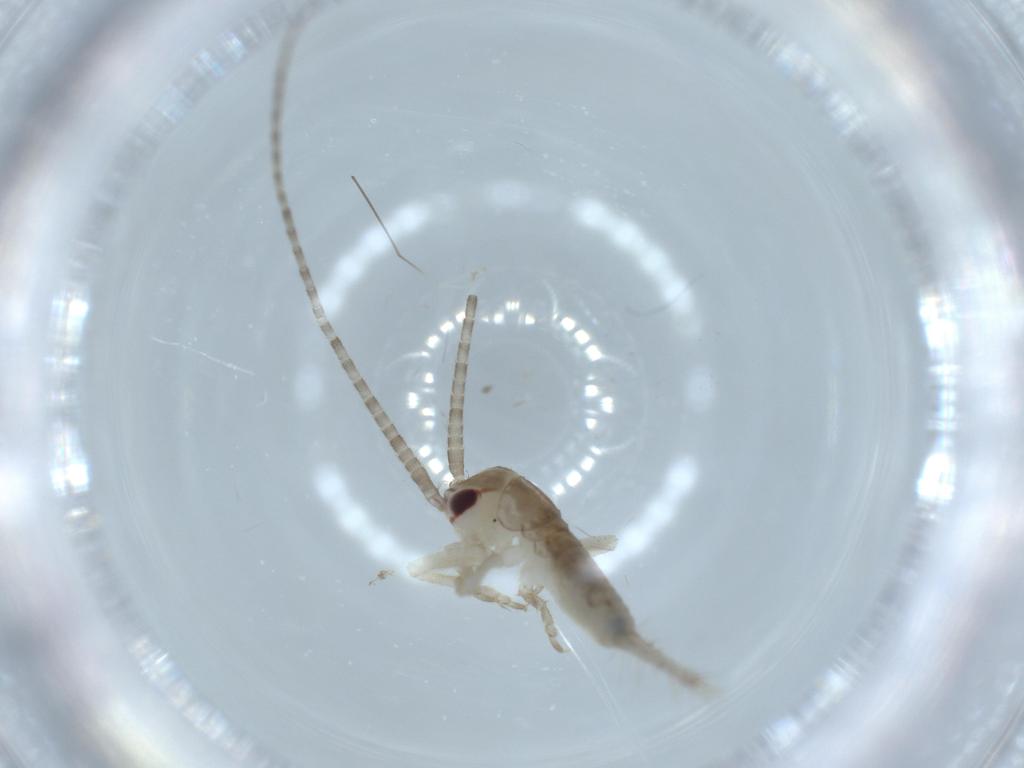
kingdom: Animalia
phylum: Arthropoda
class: Insecta
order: Orthoptera
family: Gryllidae
